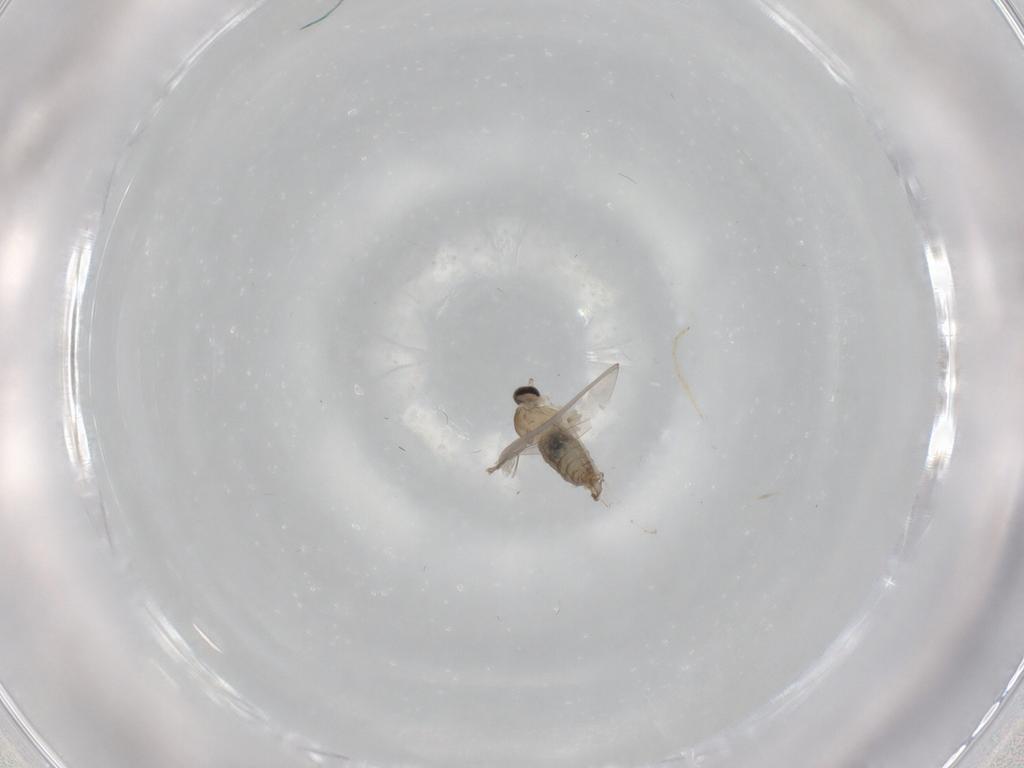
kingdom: Animalia
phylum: Arthropoda
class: Insecta
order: Diptera
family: Cecidomyiidae
